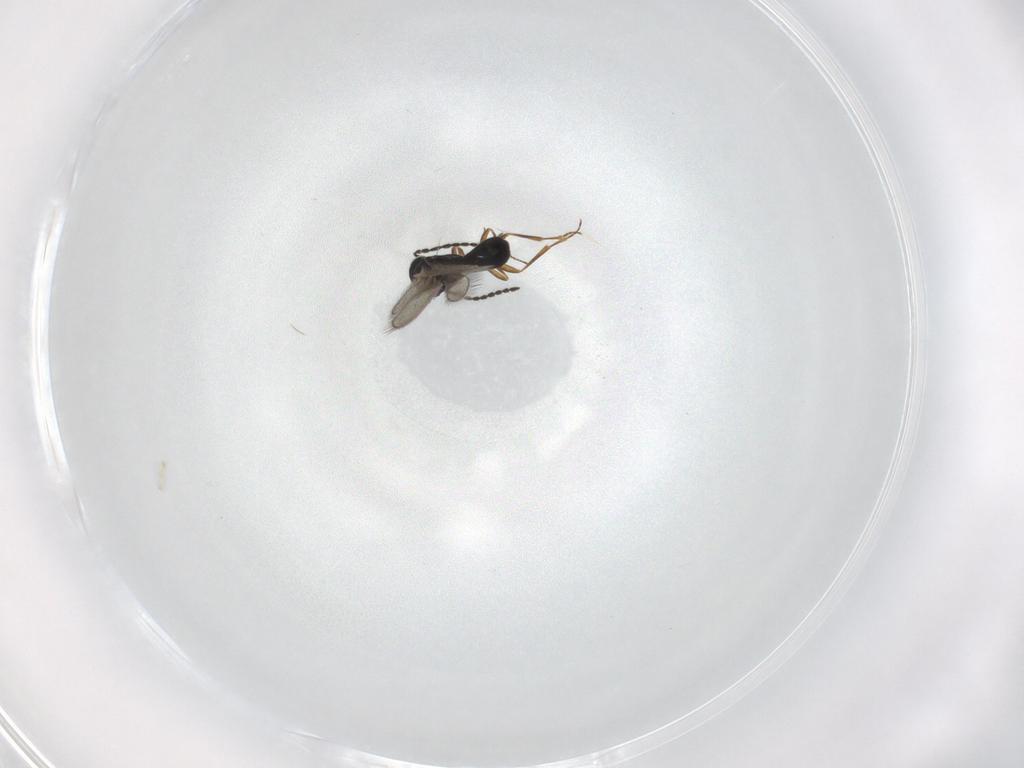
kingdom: Animalia
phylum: Arthropoda
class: Insecta
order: Hymenoptera
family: Scelionidae
